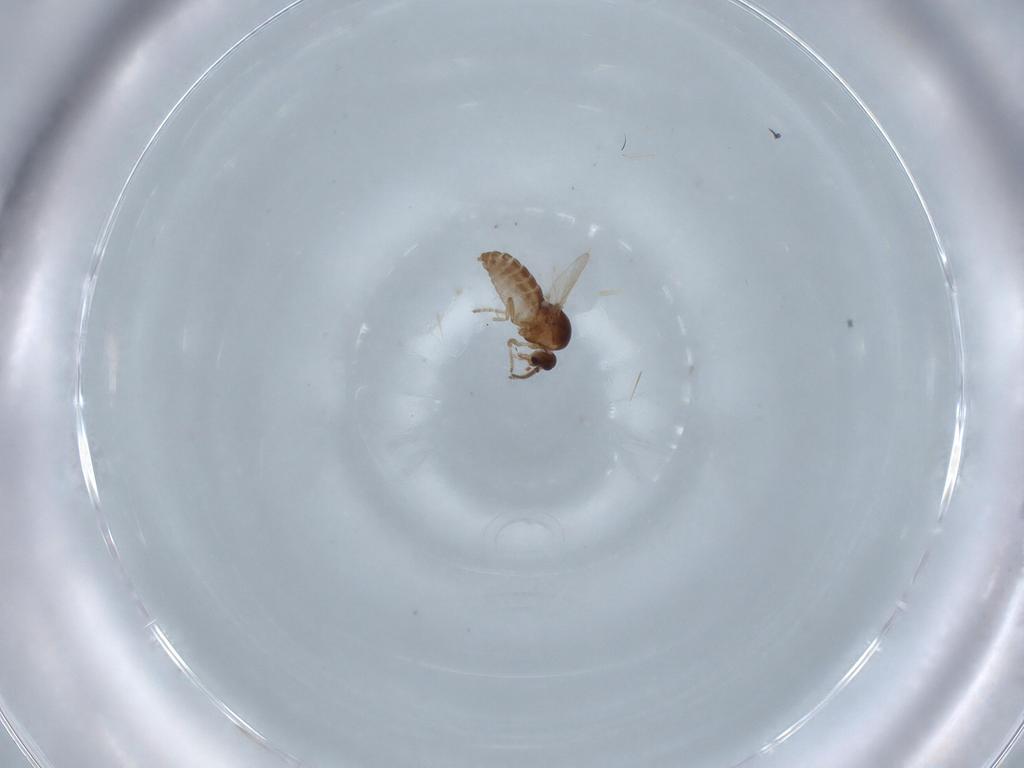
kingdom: Animalia
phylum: Arthropoda
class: Insecta
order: Diptera
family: Ceratopogonidae
